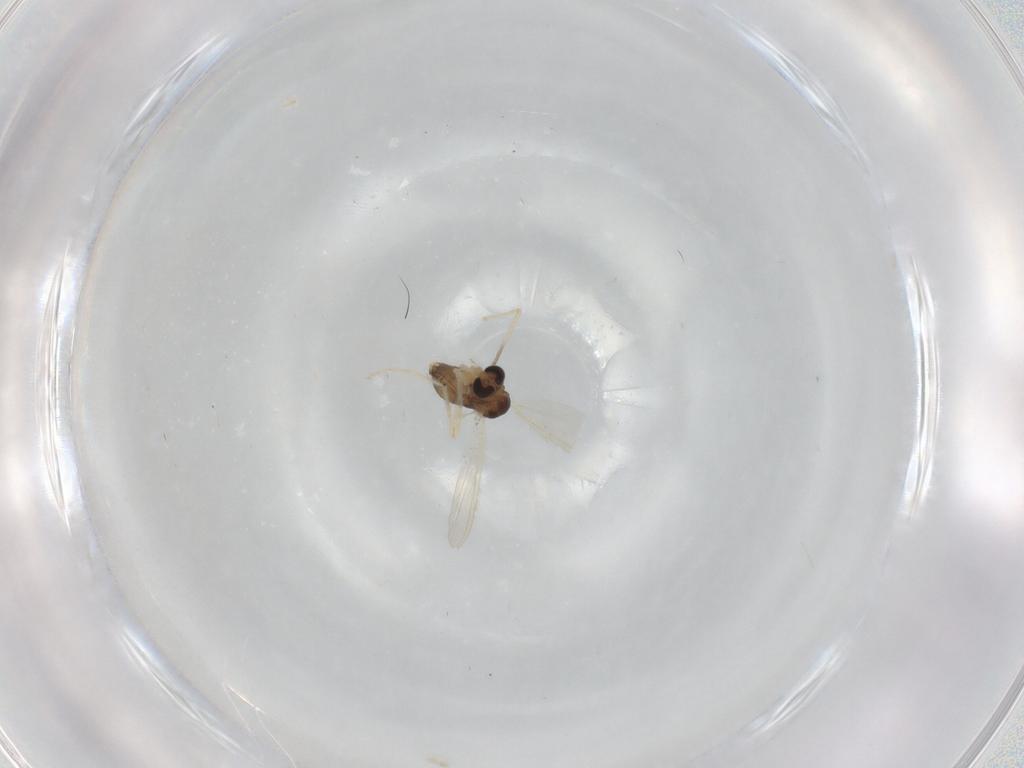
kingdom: Animalia
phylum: Arthropoda
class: Insecta
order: Diptera
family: Chironomidae
